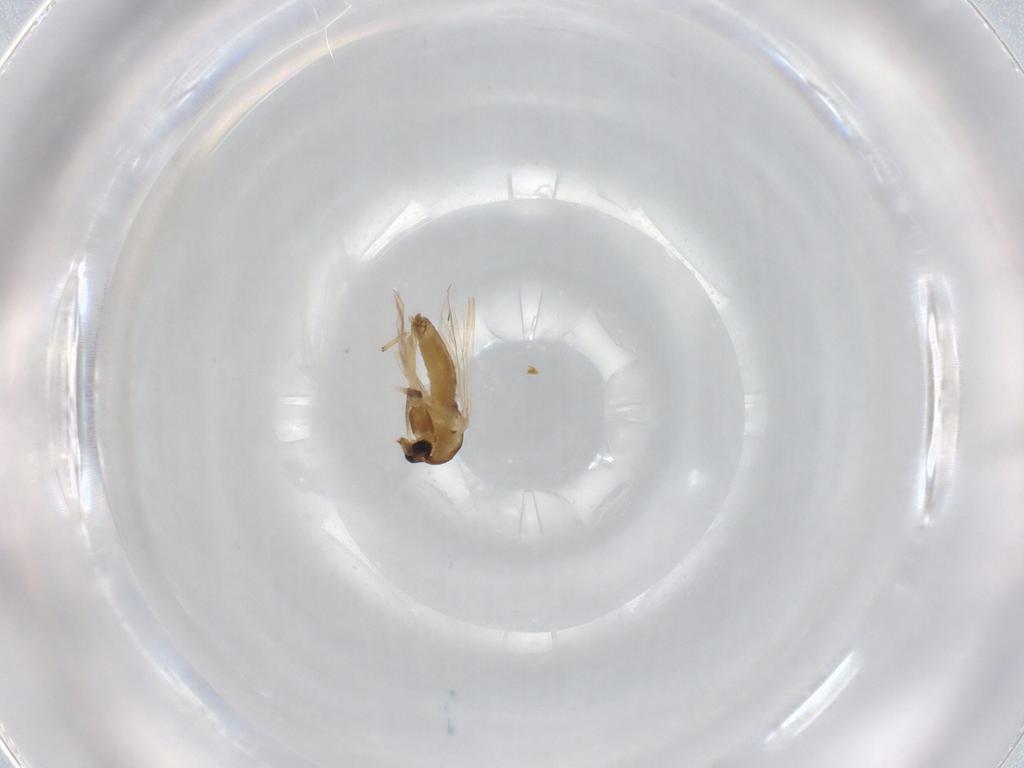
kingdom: Animalia
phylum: Arthropoda
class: Insecta
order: Diptera
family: Chironomidae
